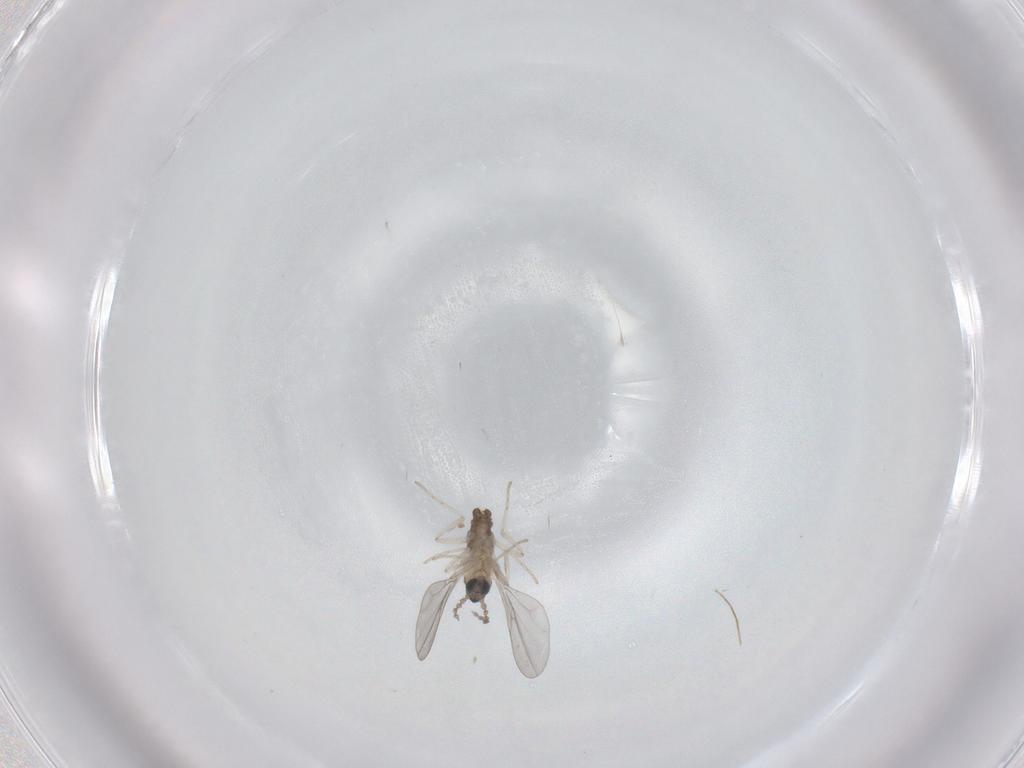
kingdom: Animalia
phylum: Arthropoda
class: Insecta
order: Diptera
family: Cecidomyiidae
